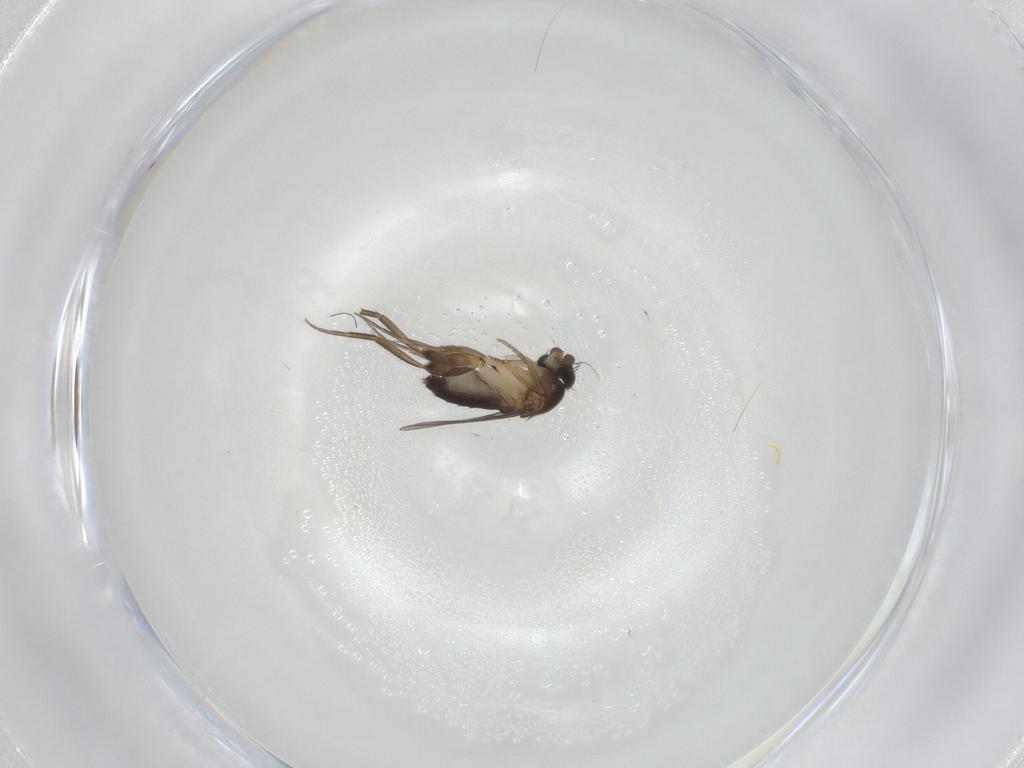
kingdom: Animalia
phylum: Arthropoda
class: Insecta
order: Diptera
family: Phoridae
